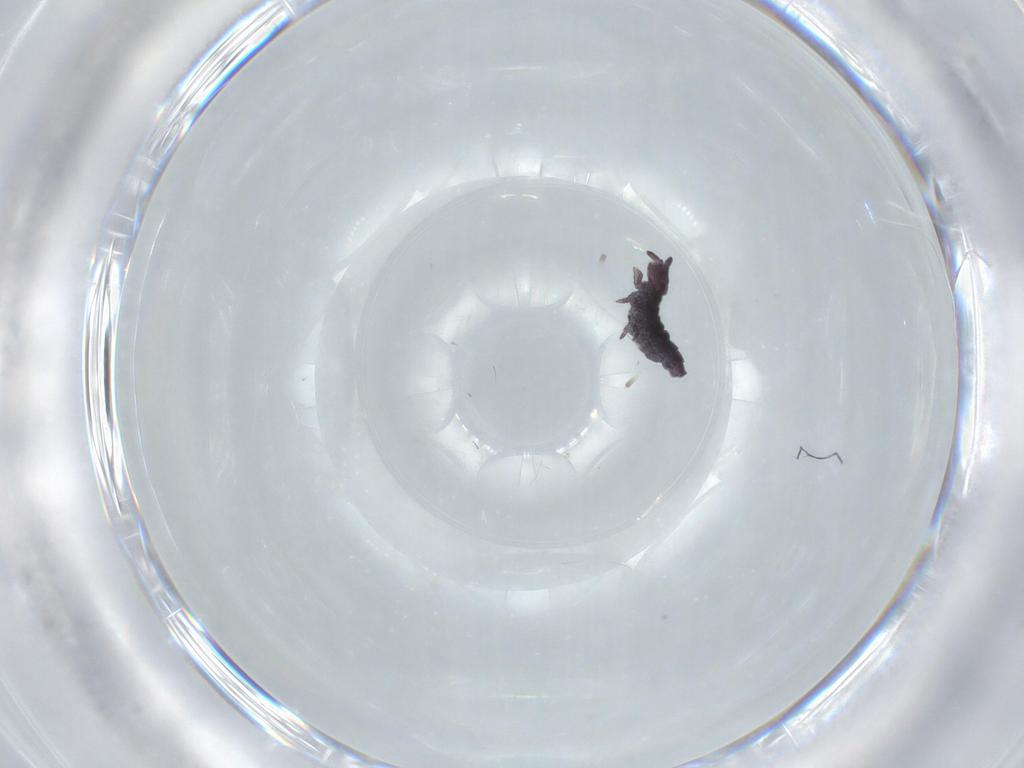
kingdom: Animalia
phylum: Arthropoda
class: Collembola
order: Poduromorpha
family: Hypogastruridae
